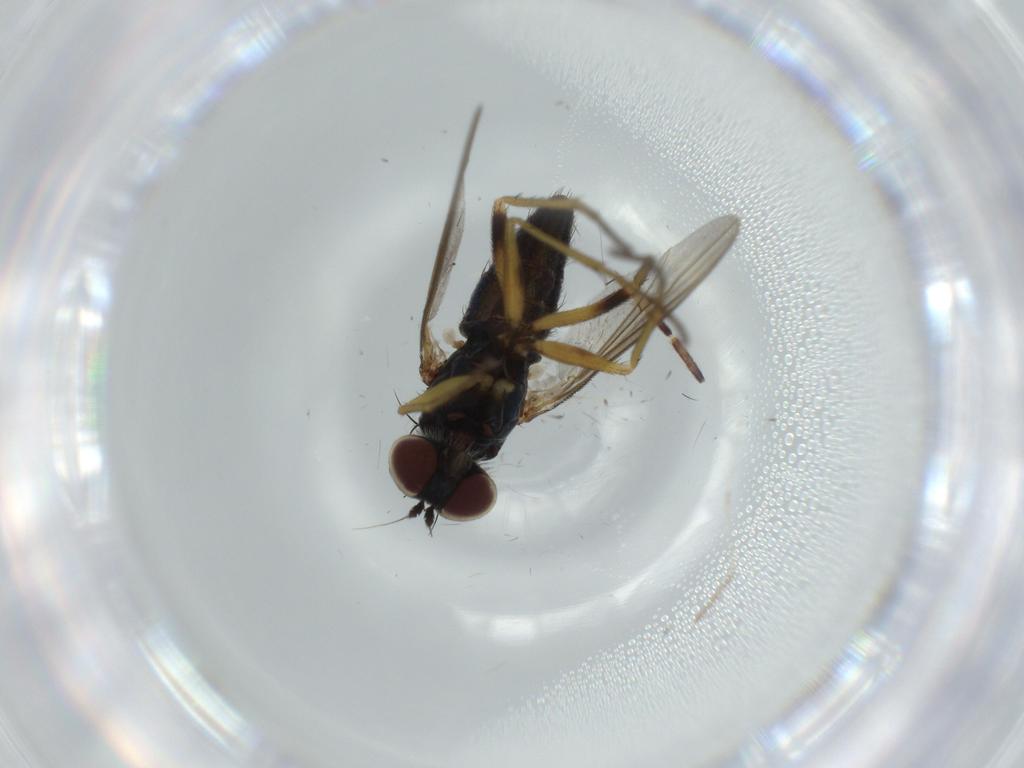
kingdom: Animalia
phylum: Arthropoda
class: Insecta
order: Diptera
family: Dolichopodidae
